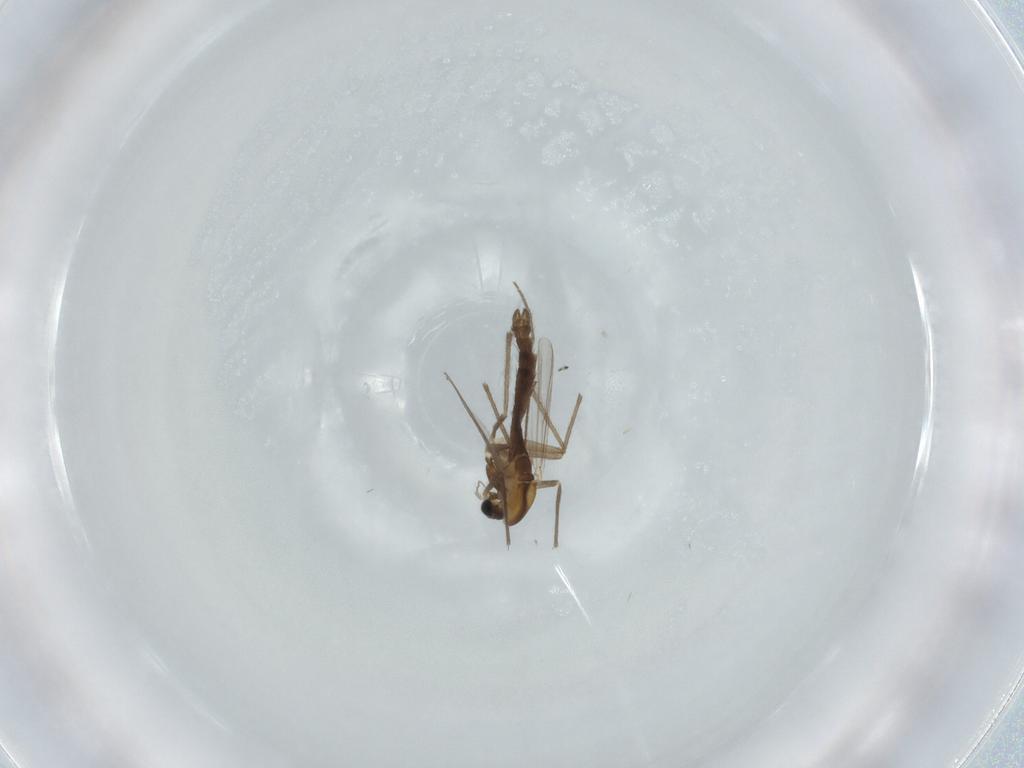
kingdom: Animalia
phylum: Arthropoda
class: Insecta
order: Diptera
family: Chironomidae
